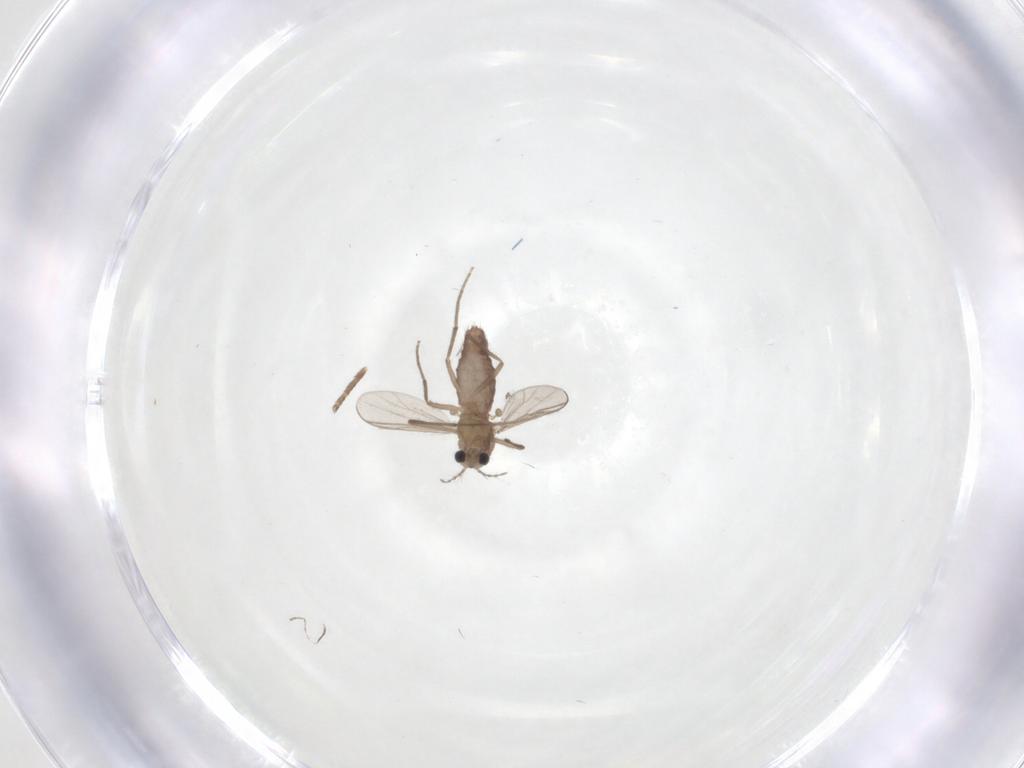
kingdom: Animalia
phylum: Arthropoda
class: Insecta
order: Diptera
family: Chironomidae
